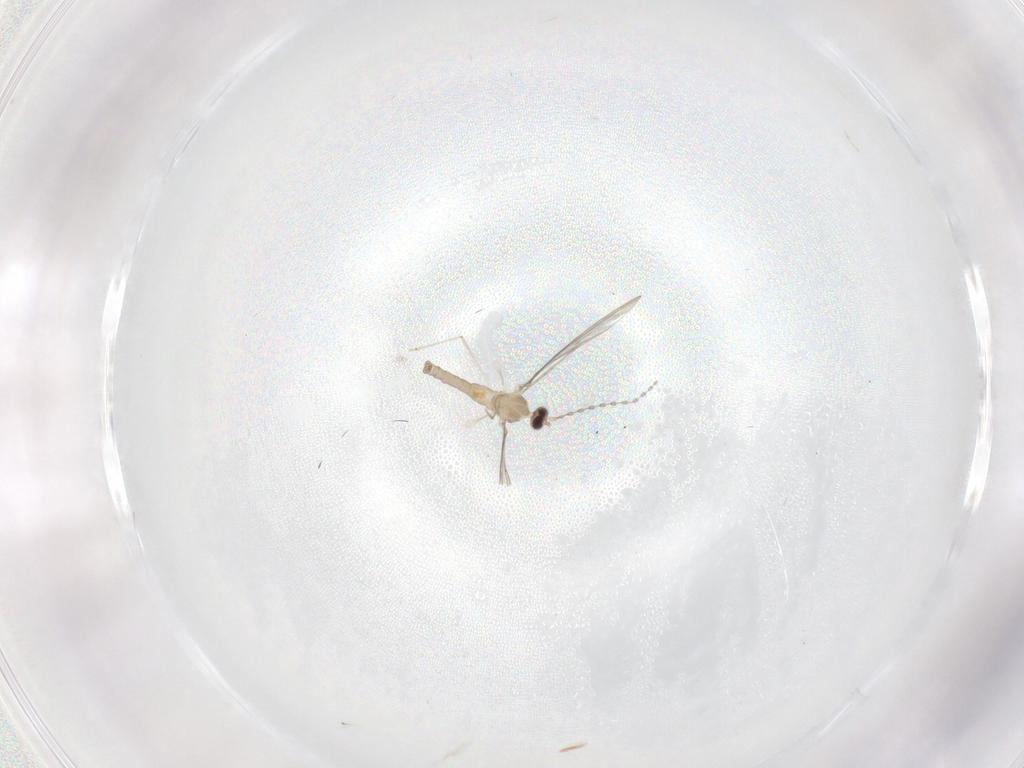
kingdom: Animalia
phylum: Arthropoda
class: Insecta
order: Diptera
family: Cecidomyiidae
